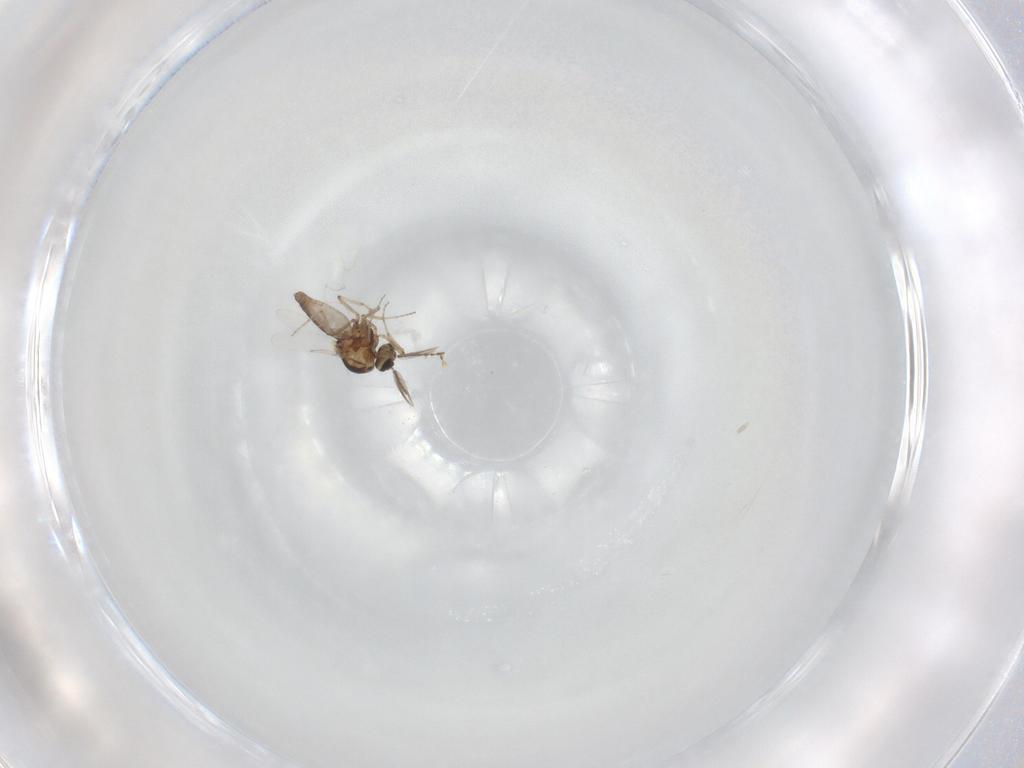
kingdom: Animalia
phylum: Arthropoda
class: Insecta
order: Diptera
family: Ceratopogonidae
